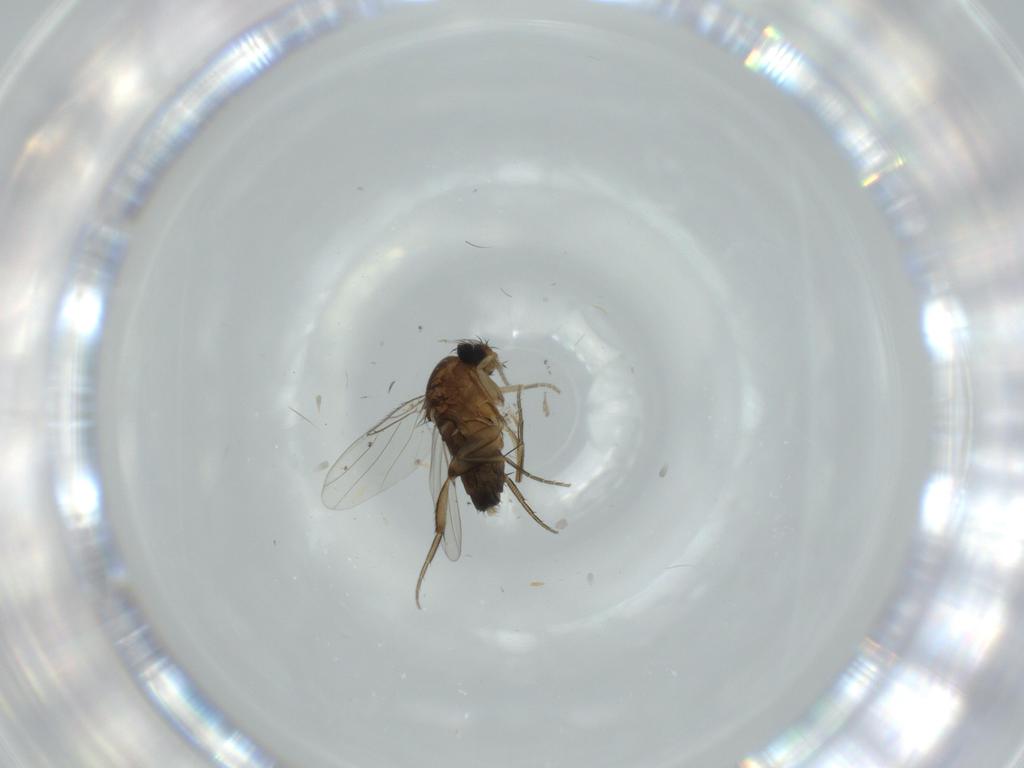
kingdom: Animalia
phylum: Arthropoda
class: Insecta
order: Diptera
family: Phoridae
